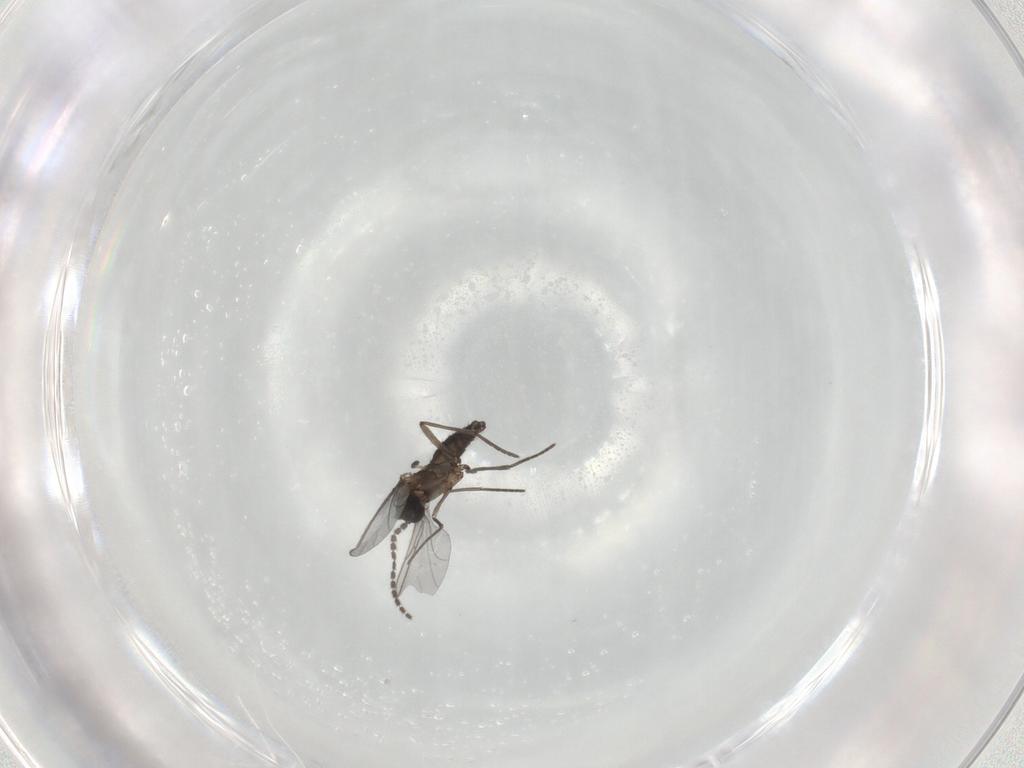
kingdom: Animalia
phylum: Arthropoda
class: Insecta
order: Diptera
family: Sciaridae
